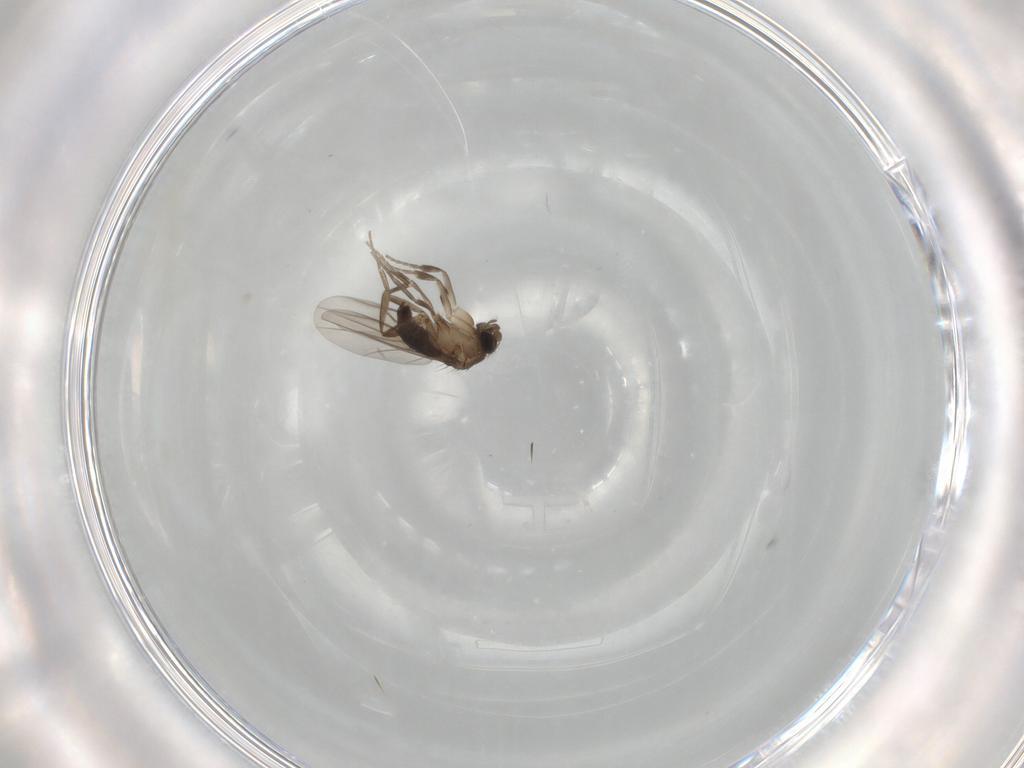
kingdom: Animalia
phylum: Arthropoda
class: Insecta
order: Diptera
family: Phoridae
